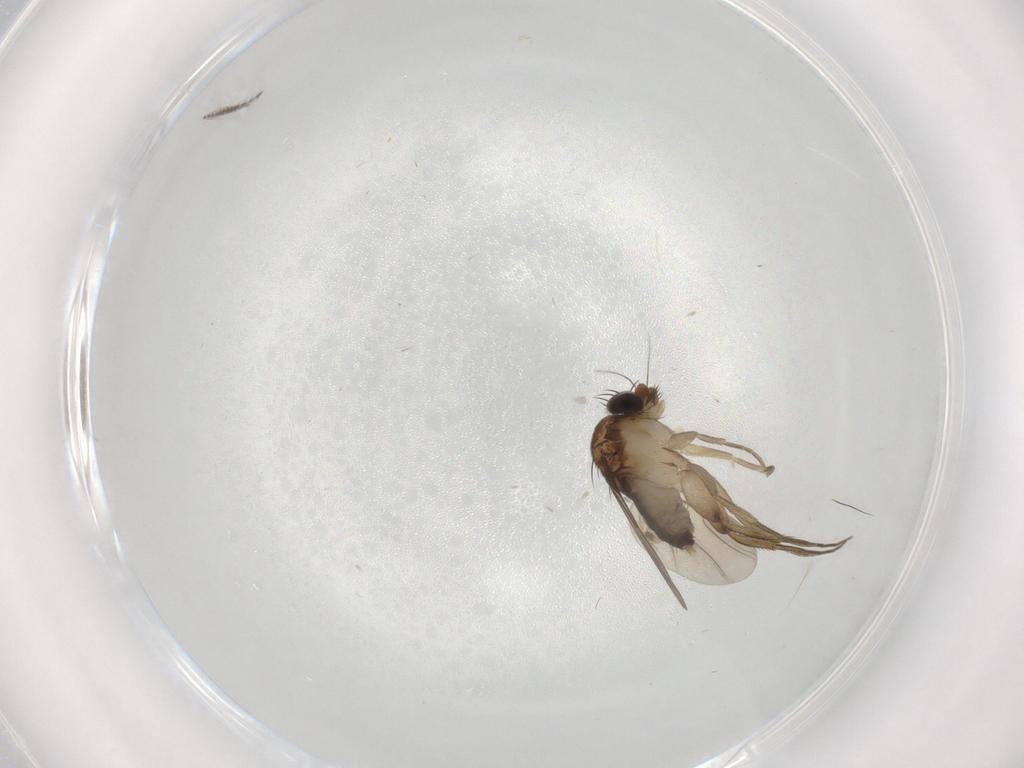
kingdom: Animalia
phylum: Arthropoda
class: Insecta
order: Diptera
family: Phoridae
